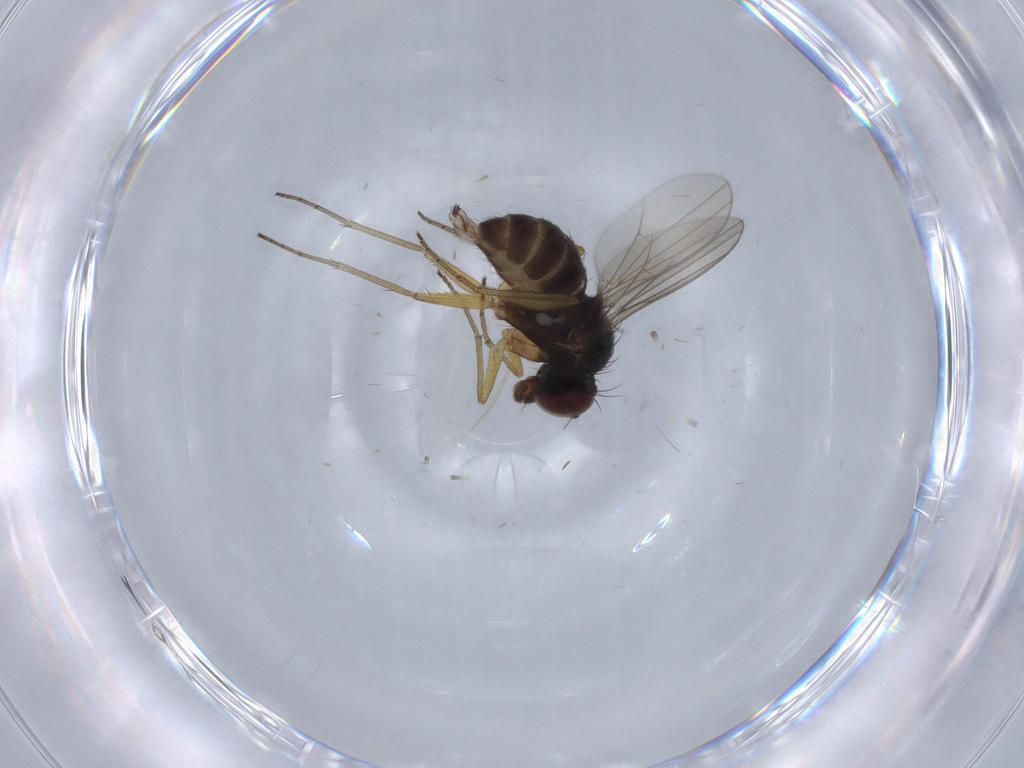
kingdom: Animalia
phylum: Arthropoda
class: Insecta
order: Diptera
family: Dolichopodidae
